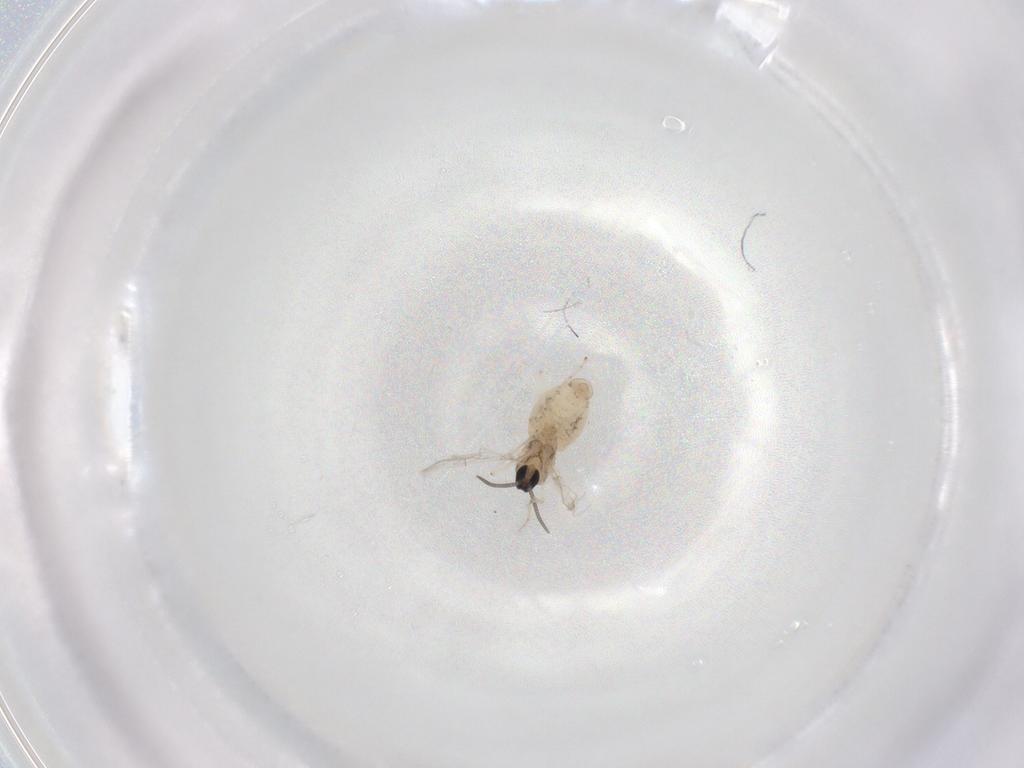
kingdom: Animalia
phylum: Arthropoda
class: Insecta
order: Diptera
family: Cecidomyiidae
